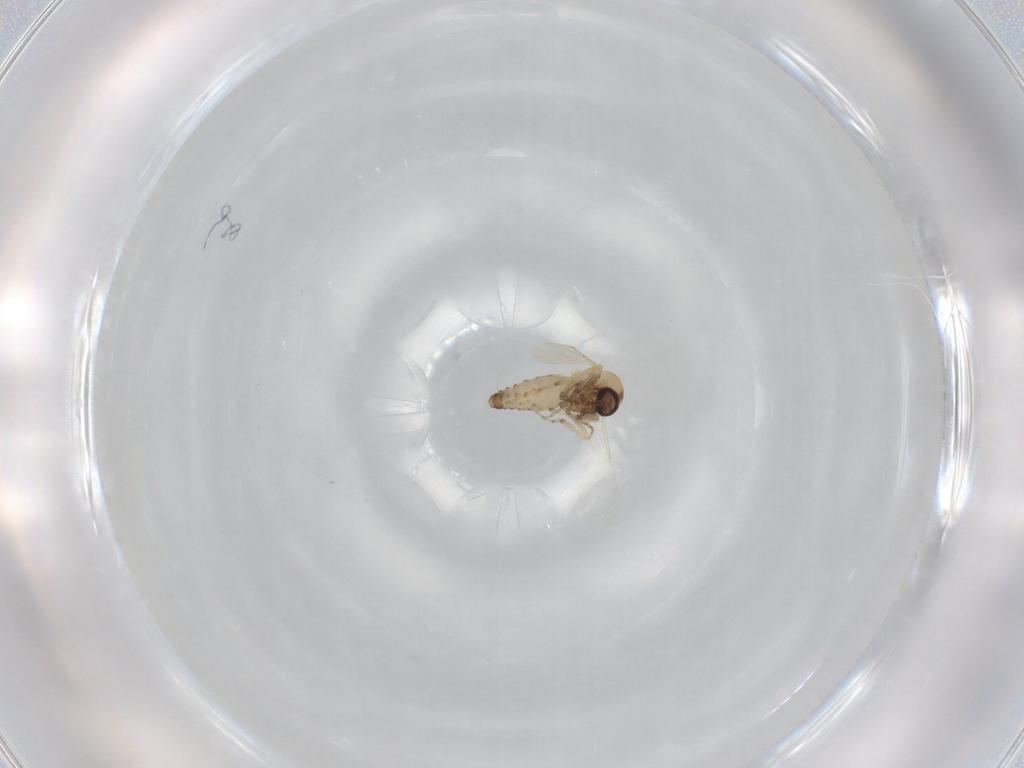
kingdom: Animalia
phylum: Arthropoda
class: Insecta
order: Diptera
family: Ceratopogonidae
